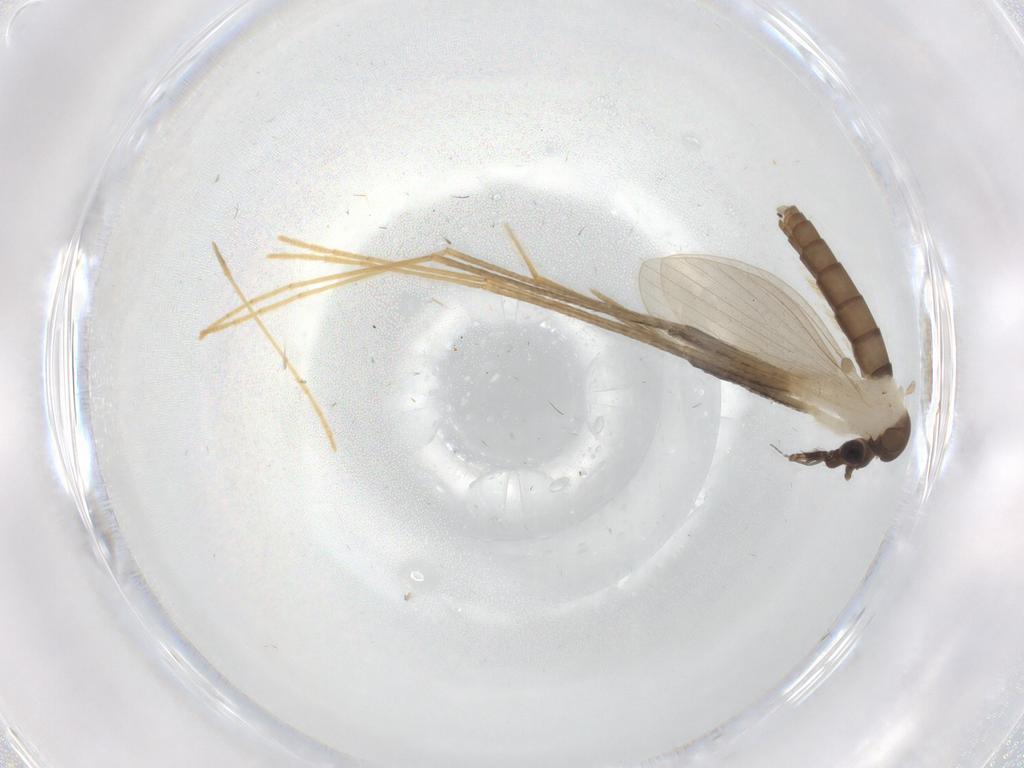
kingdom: Animalia
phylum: Arthropoda
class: Insecta
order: Diptera
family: Psychodidae
